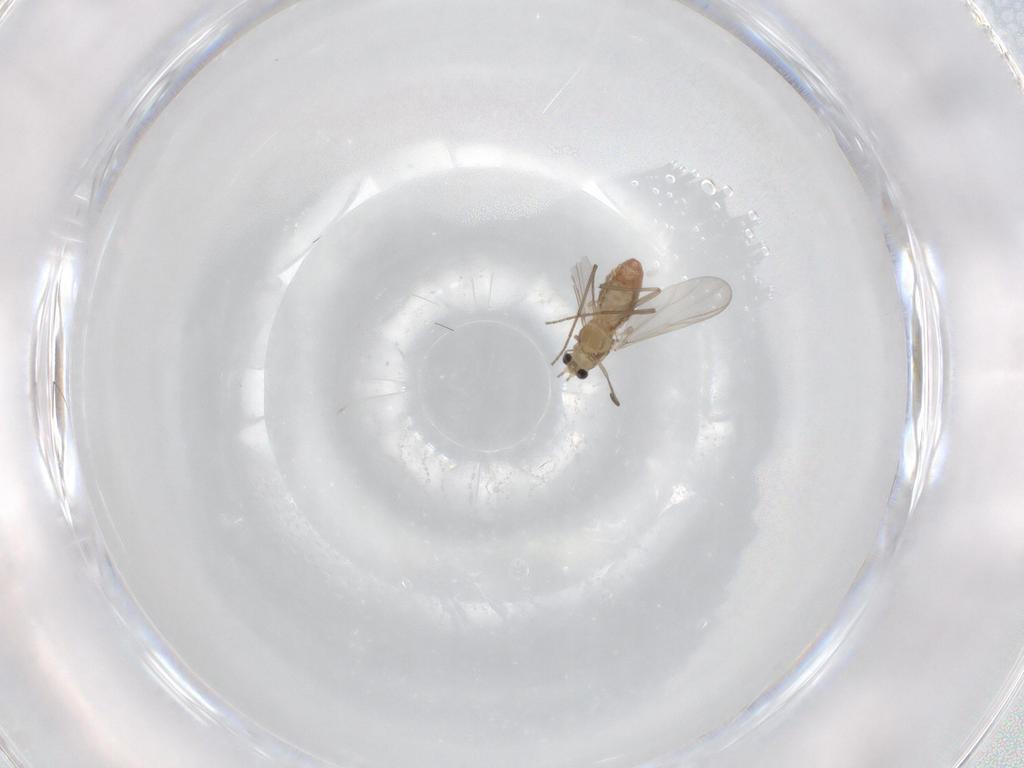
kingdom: Animalia
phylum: Arthropoda
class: Insecta
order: Diptera
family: Chironomidae
